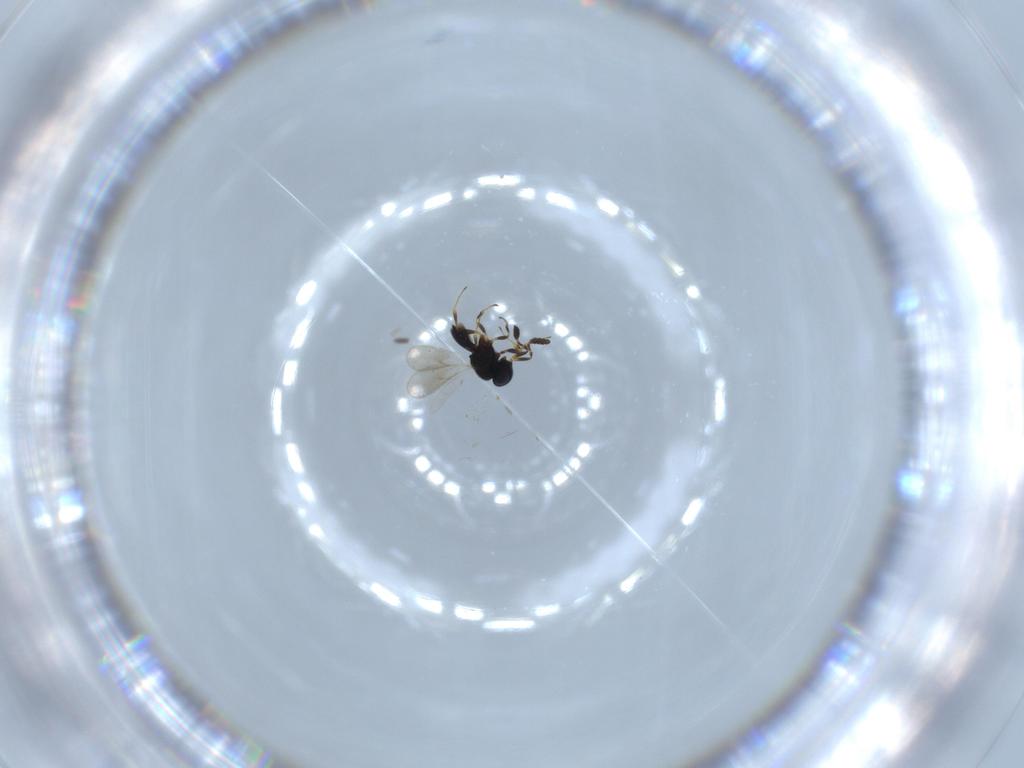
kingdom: Animalia
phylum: Arthropoda
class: Insecta
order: Hymenoptera
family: Scelionidae
